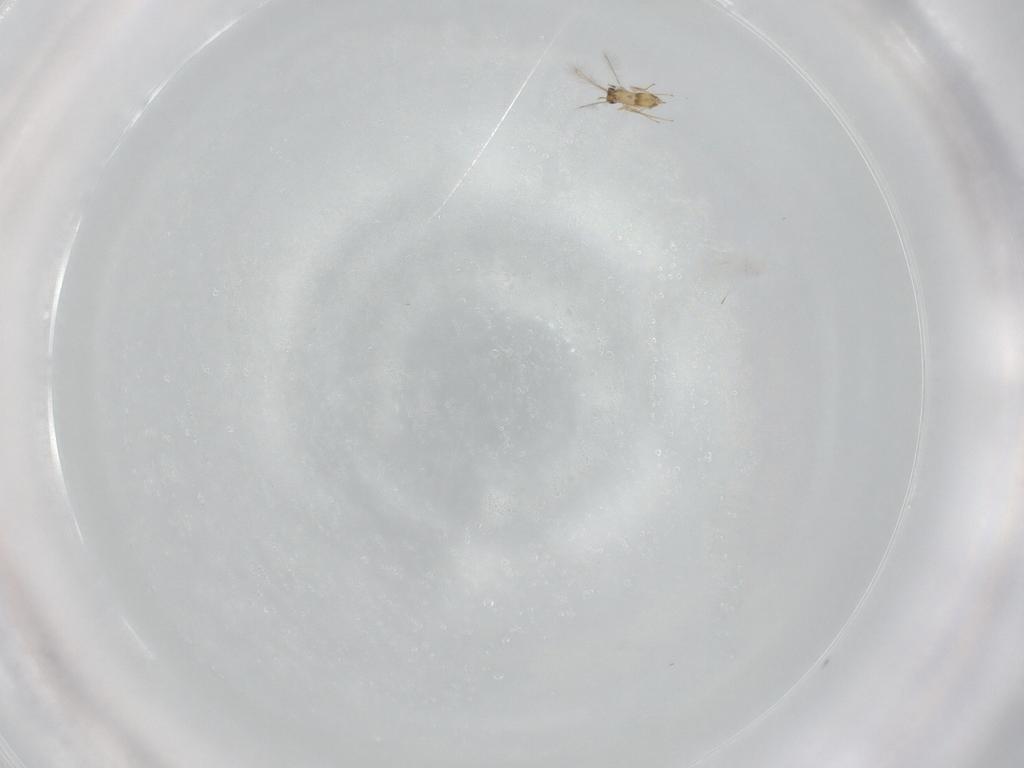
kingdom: Animalia
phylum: Arthropoda
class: Insecta
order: Hymenoptera
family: Mymaridae
